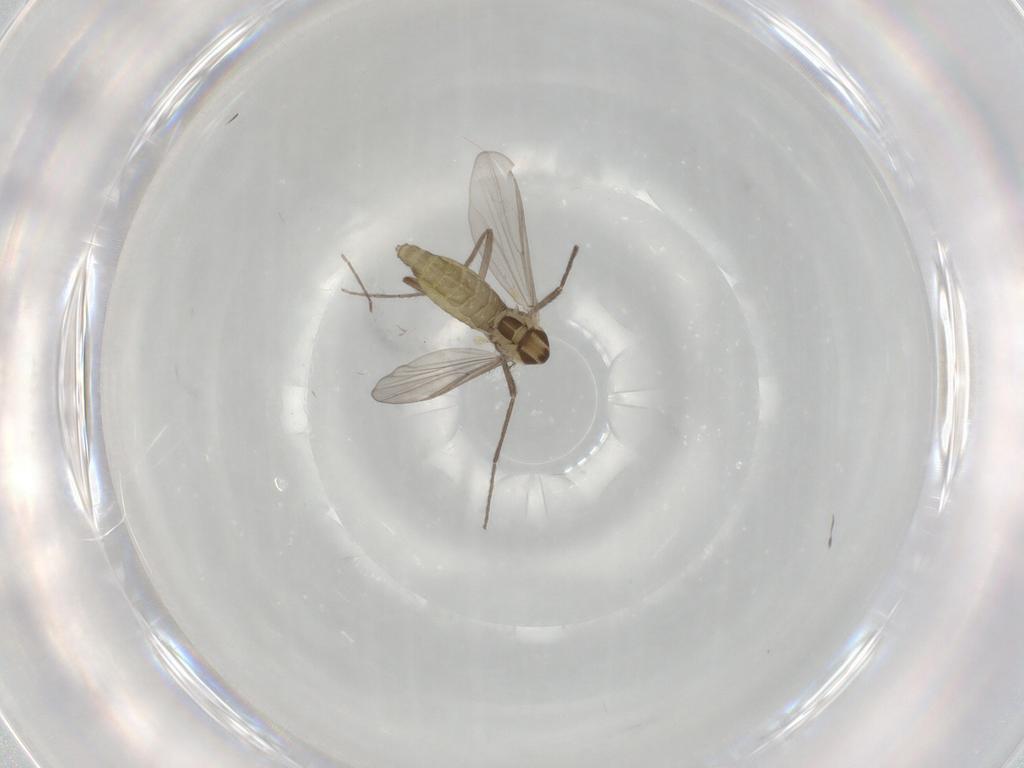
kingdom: Animalia
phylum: Arthropoda
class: Insecta
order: Diptera
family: Chironomidae
